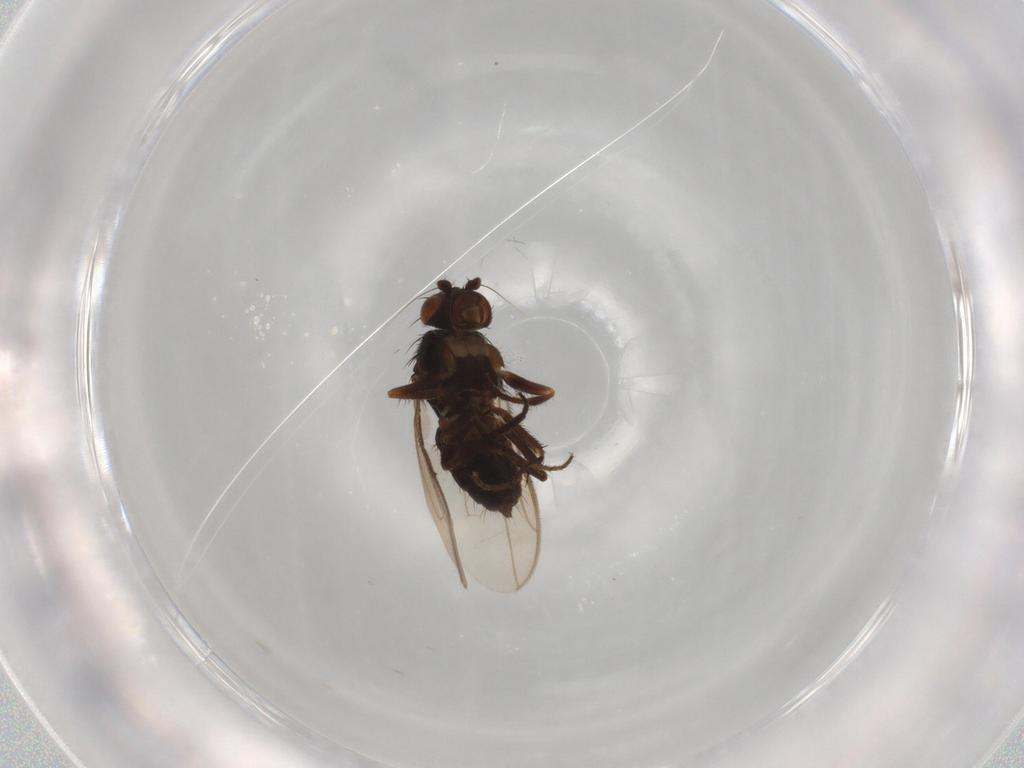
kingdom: Animalia
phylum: Arthropoda
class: Insecta
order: Diptera
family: Sphaeroceridae
